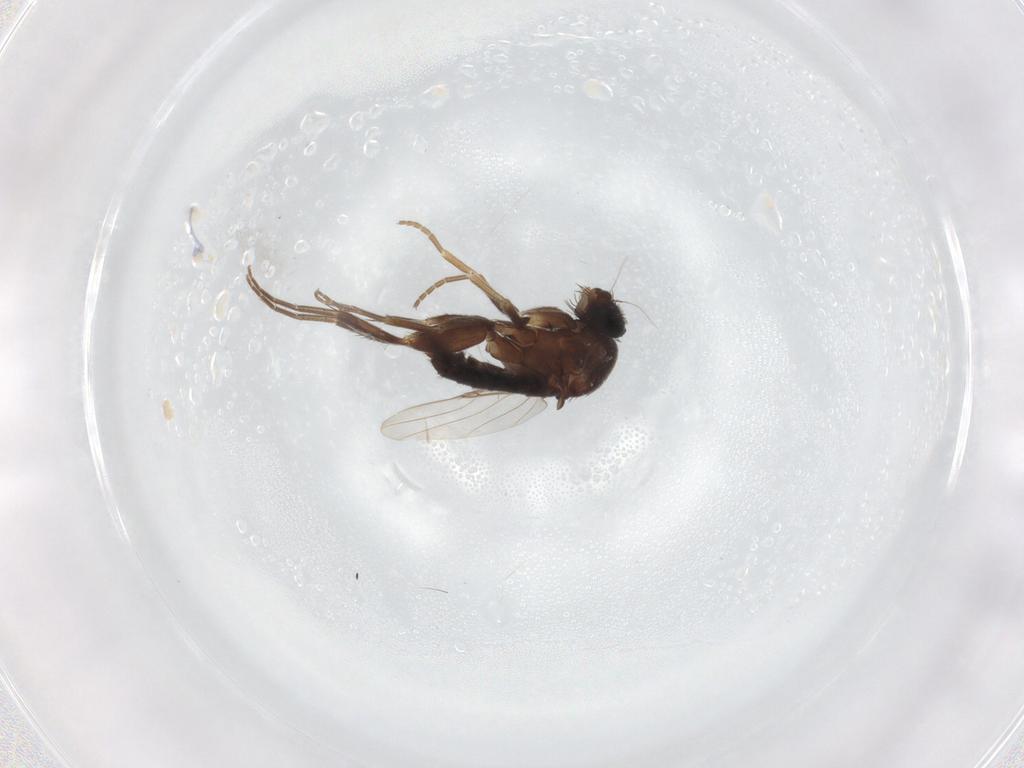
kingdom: Animalia
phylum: Arthropoda
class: Insecta
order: Diptera
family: Phoridae
